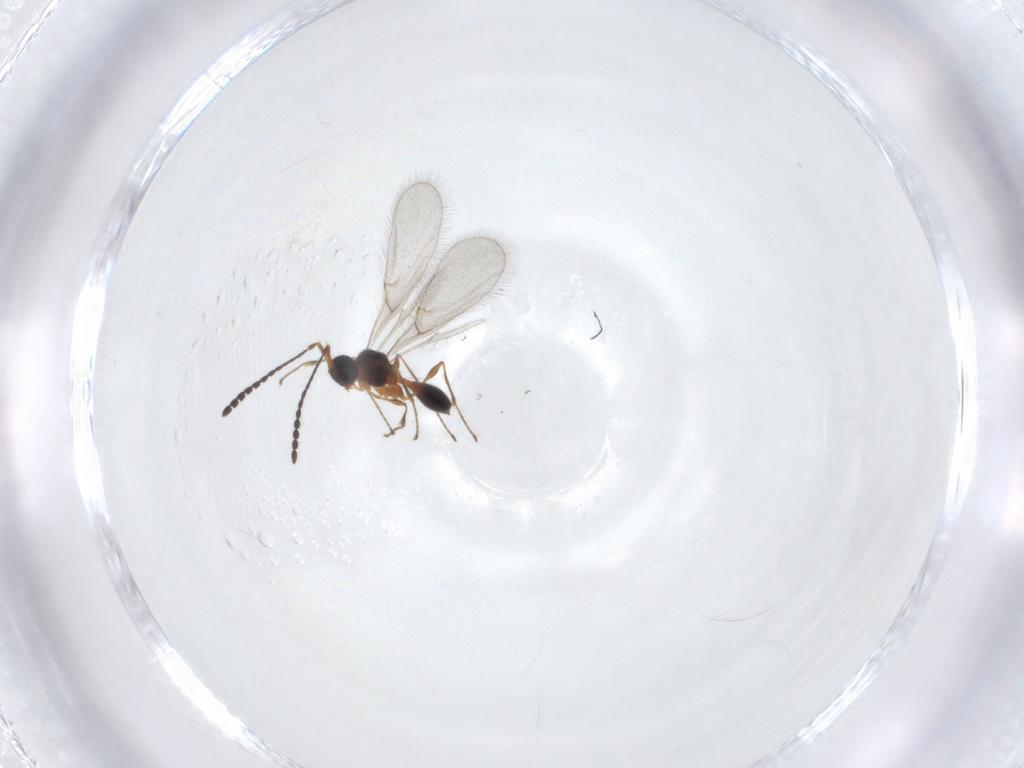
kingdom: Animalia
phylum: Arthropoda
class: Insecta
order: Hymenoptera
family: Diapriidae
